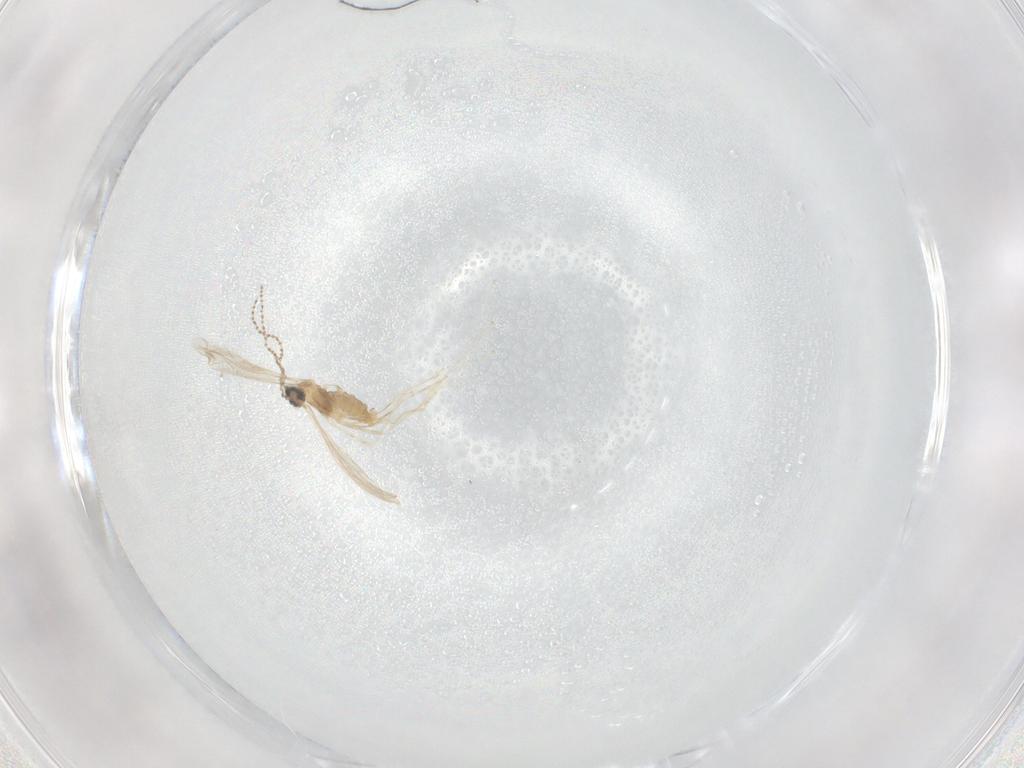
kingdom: Animalia
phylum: Arthropoda
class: Insecta
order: Diptera
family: Cecidomyiidae
